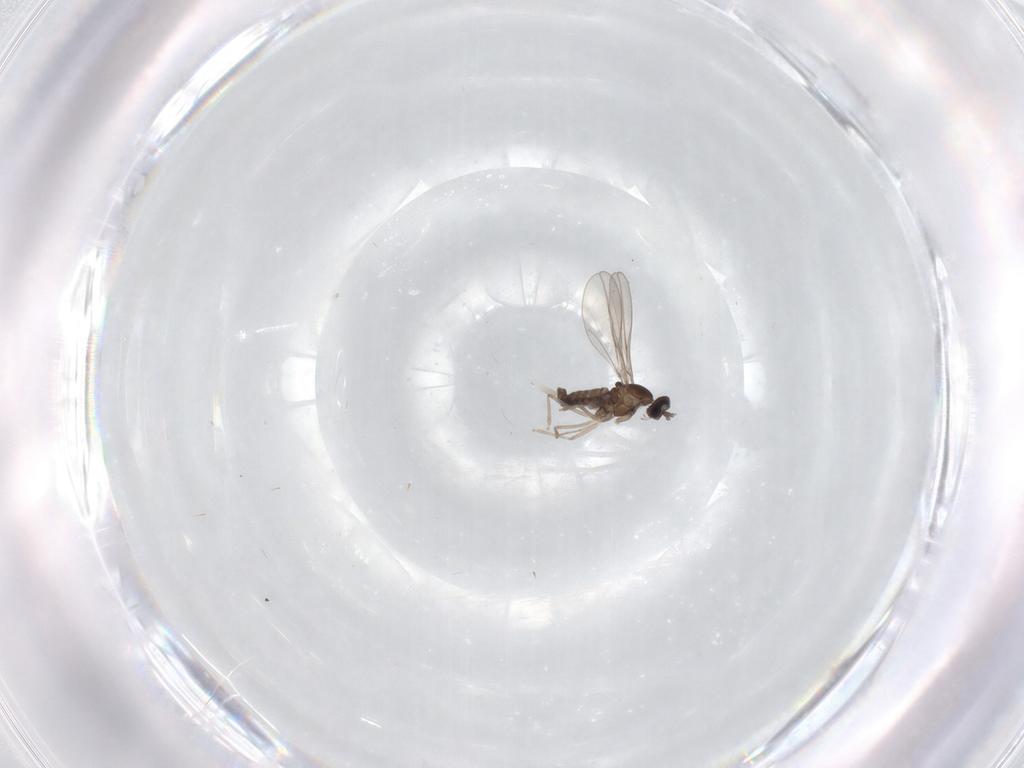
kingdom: Animalia
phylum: Arthropoda
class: Insecta
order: Diptera
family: Cecidomyiidae
